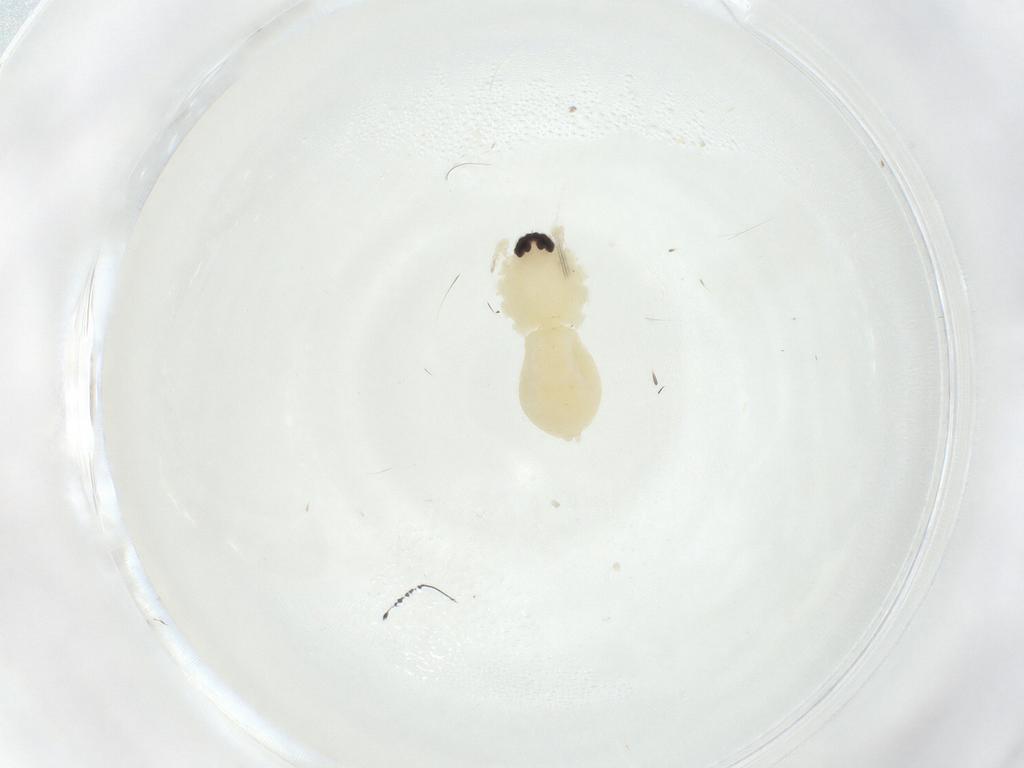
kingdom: Animalia
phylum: Arthropoda
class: Arachnida
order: Araneae
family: Anyphaenidae
